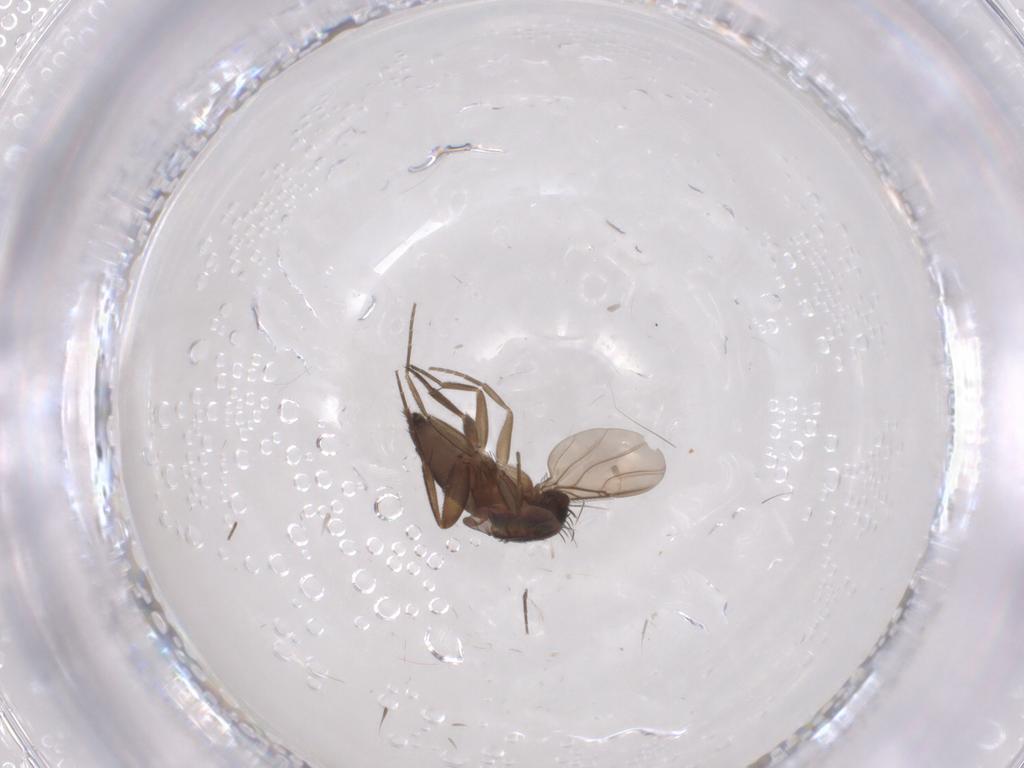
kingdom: Animalia
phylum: Arthropoda
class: Insecta
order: Diptera
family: Phoridae
